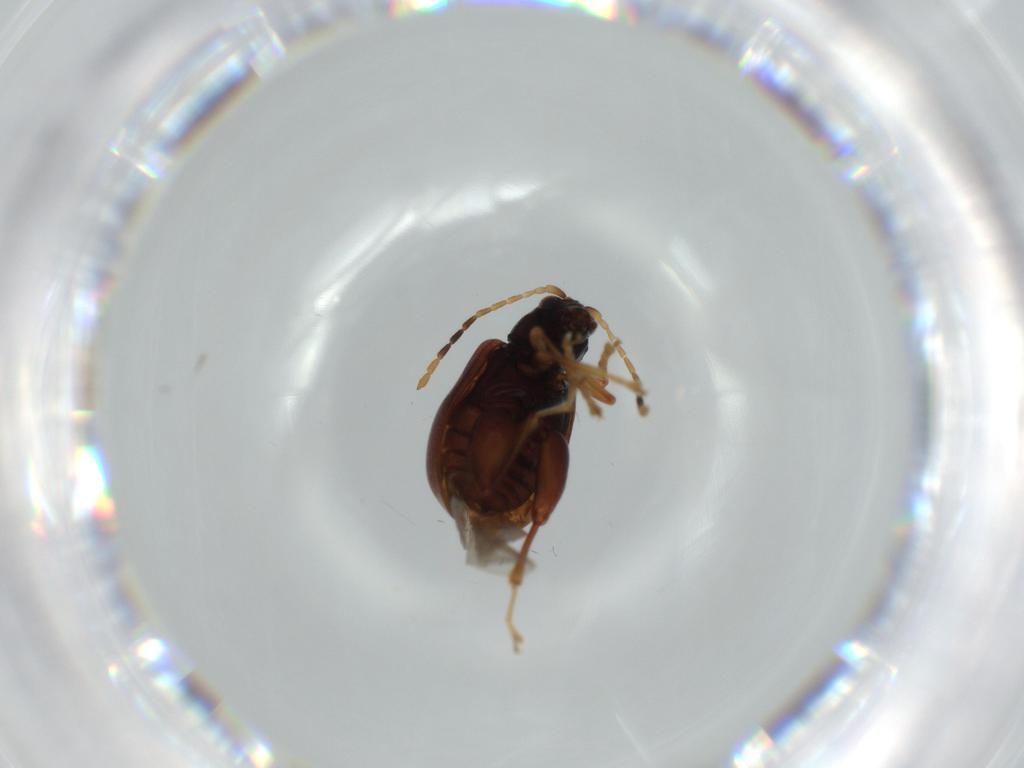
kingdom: Animalia
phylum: Arthropoda
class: Insecta
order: Coleoptera
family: Chrysomelidae
